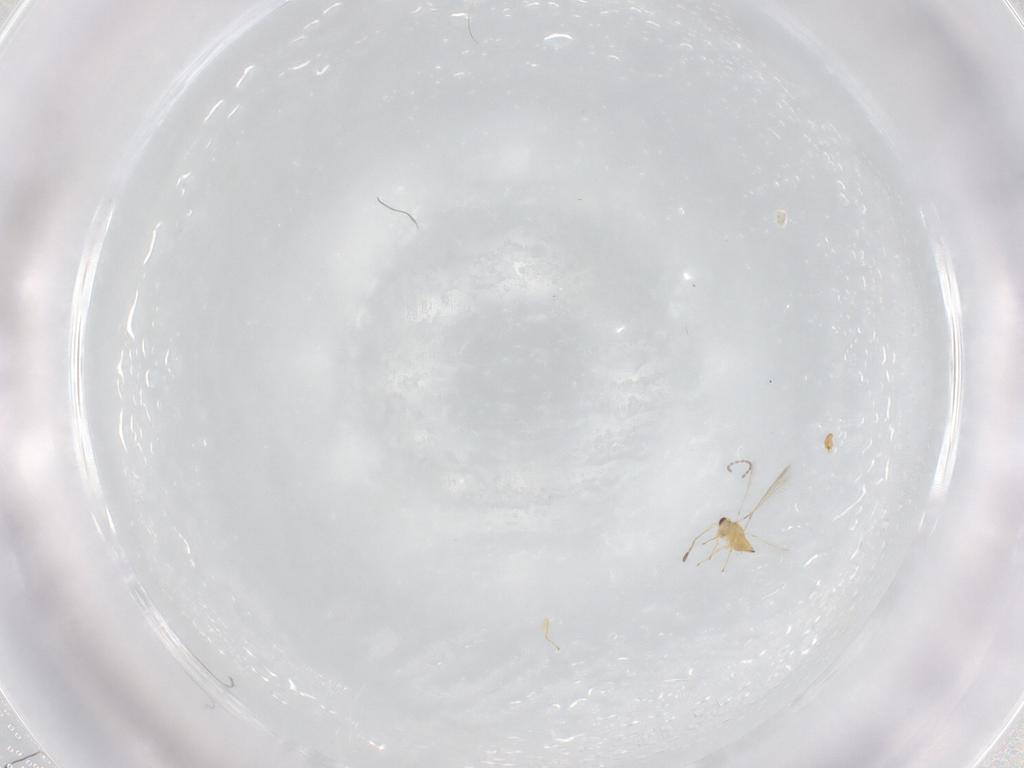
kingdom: Animalia
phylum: Arthropoda
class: Insecta
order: Hymenoptera
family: Mymaridae
